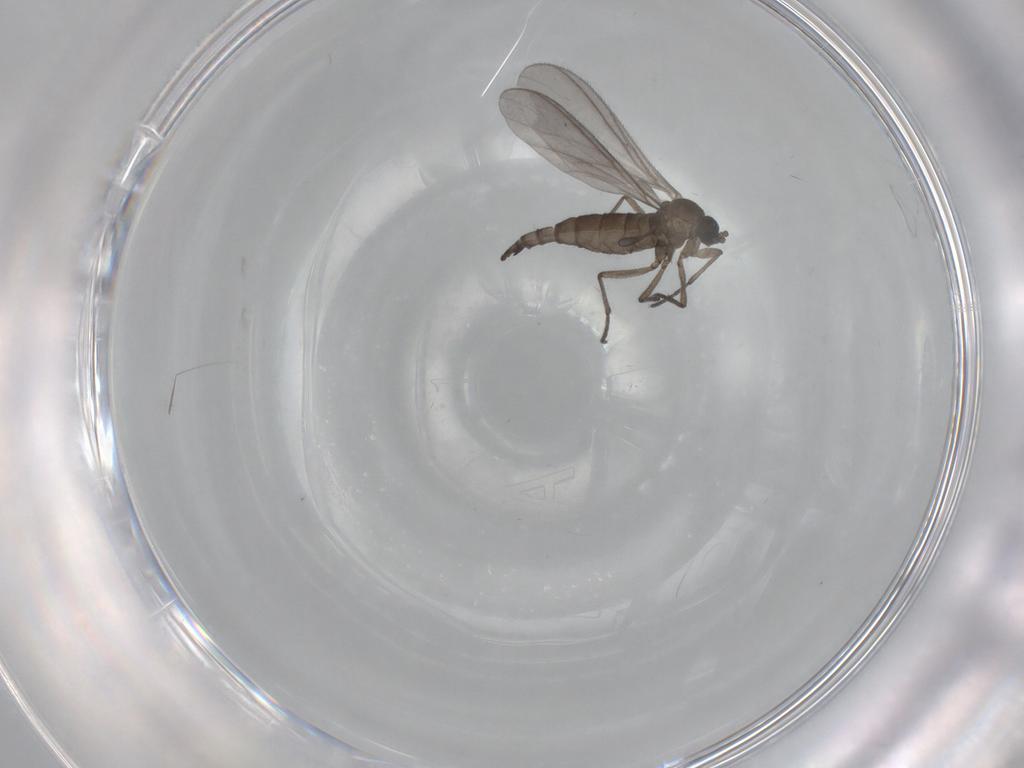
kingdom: Animalia
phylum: Arthropoda
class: Insecta
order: Diptera
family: Sciaridae
